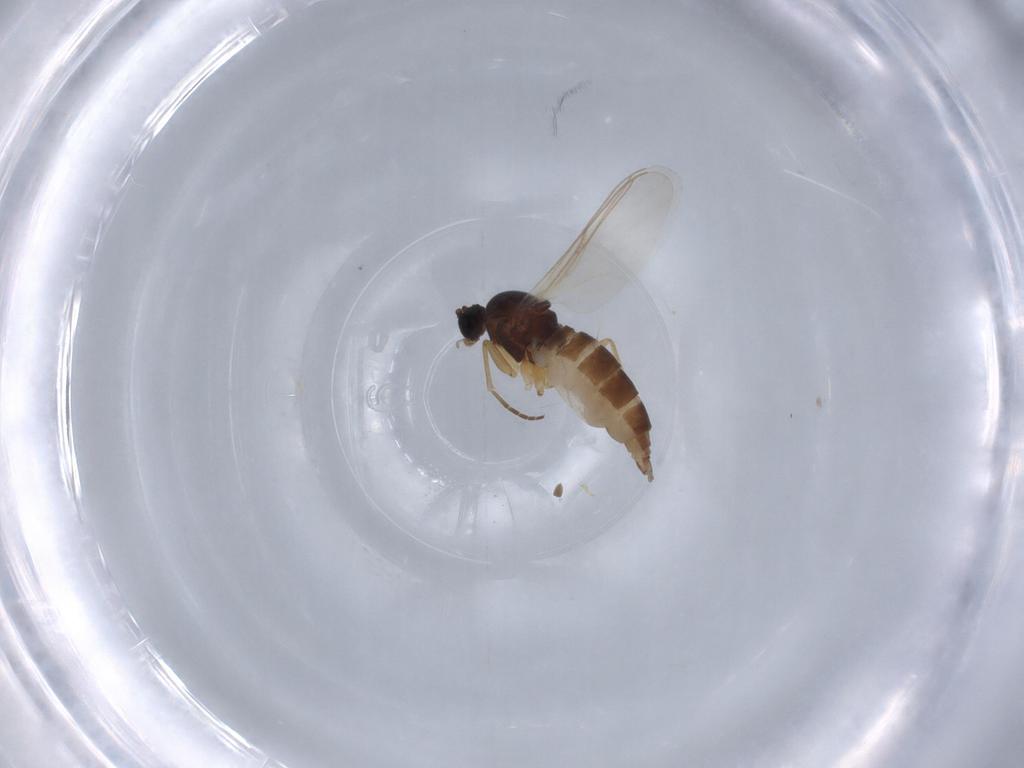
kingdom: Animalia
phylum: Arthropoda
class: Insecta
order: Diptera
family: Sciaridae
